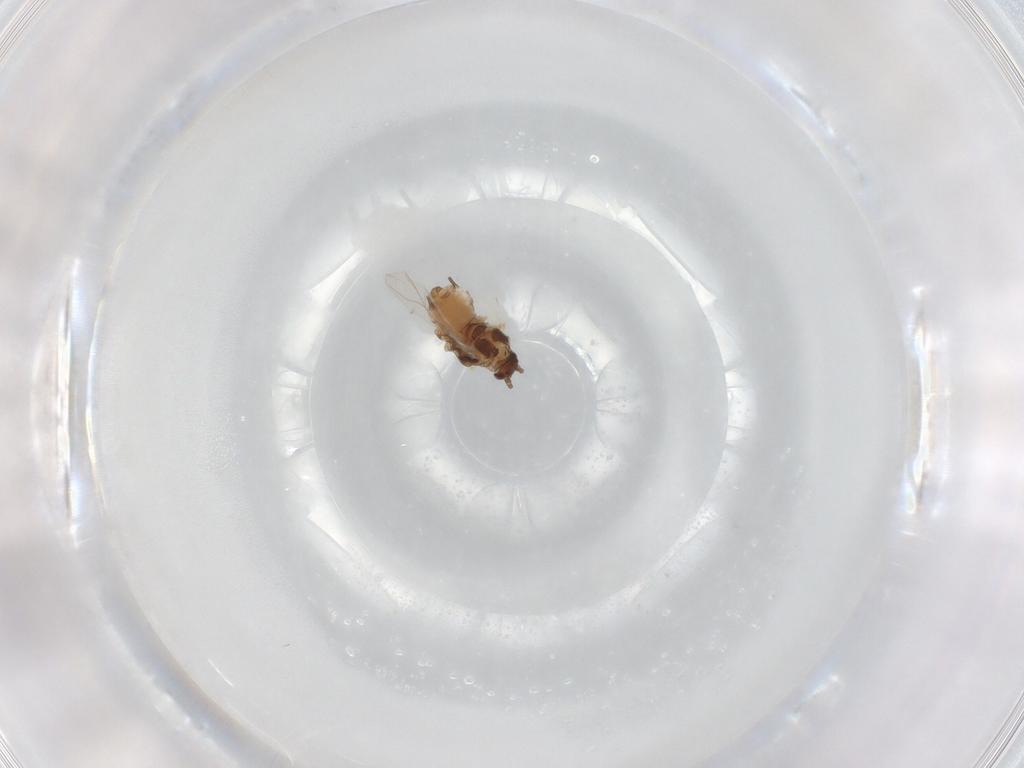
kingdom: Animalia
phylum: Arthropoda
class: Insecta
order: Hemiptera
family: Aphididae
